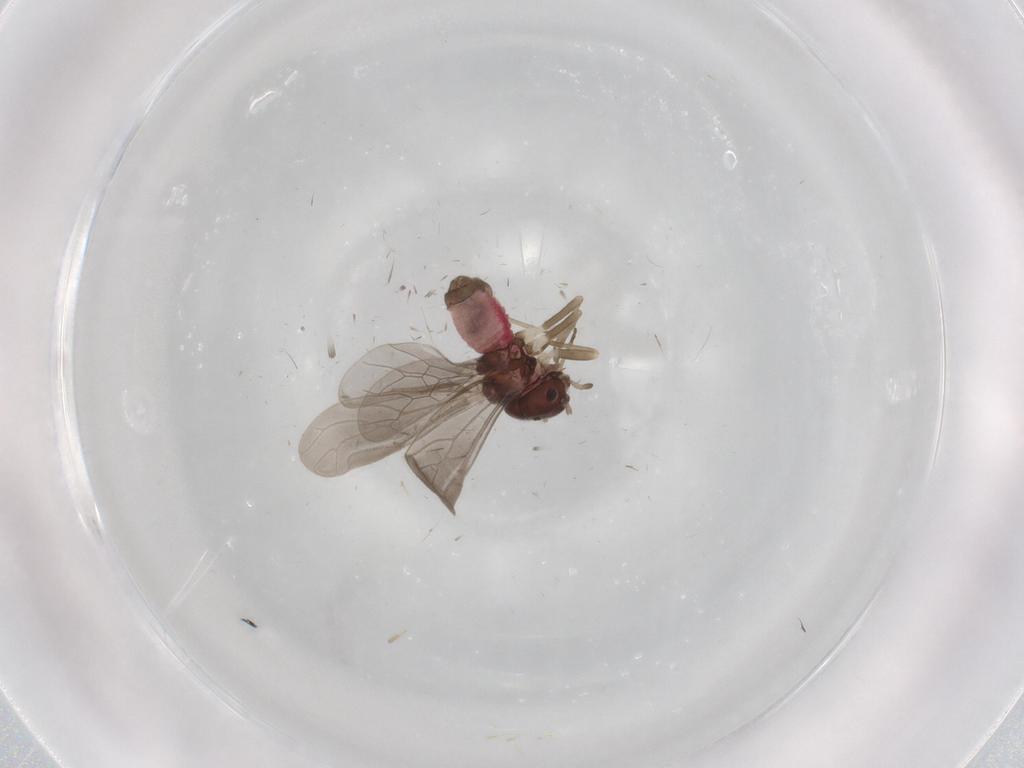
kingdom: Animalia
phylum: Arthropoda
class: Insecta
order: Psocodea
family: Archipsocidae
